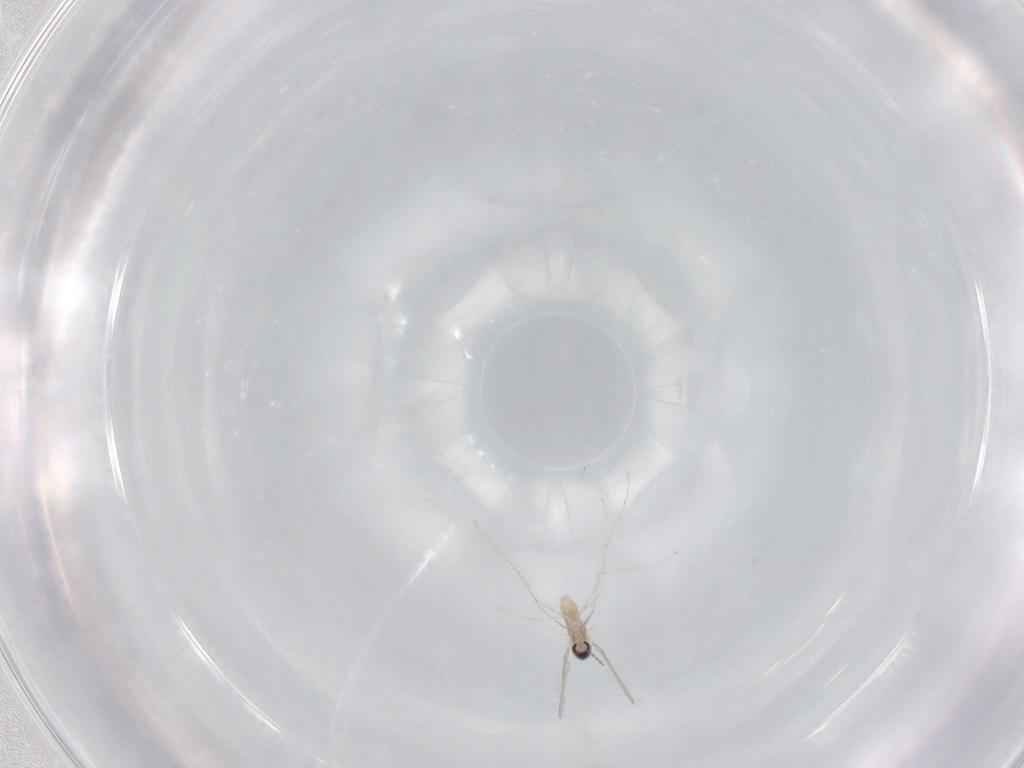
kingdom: Animalia
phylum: Arthropoda
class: Insecta
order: Diptera
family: Cecidomyiidae
